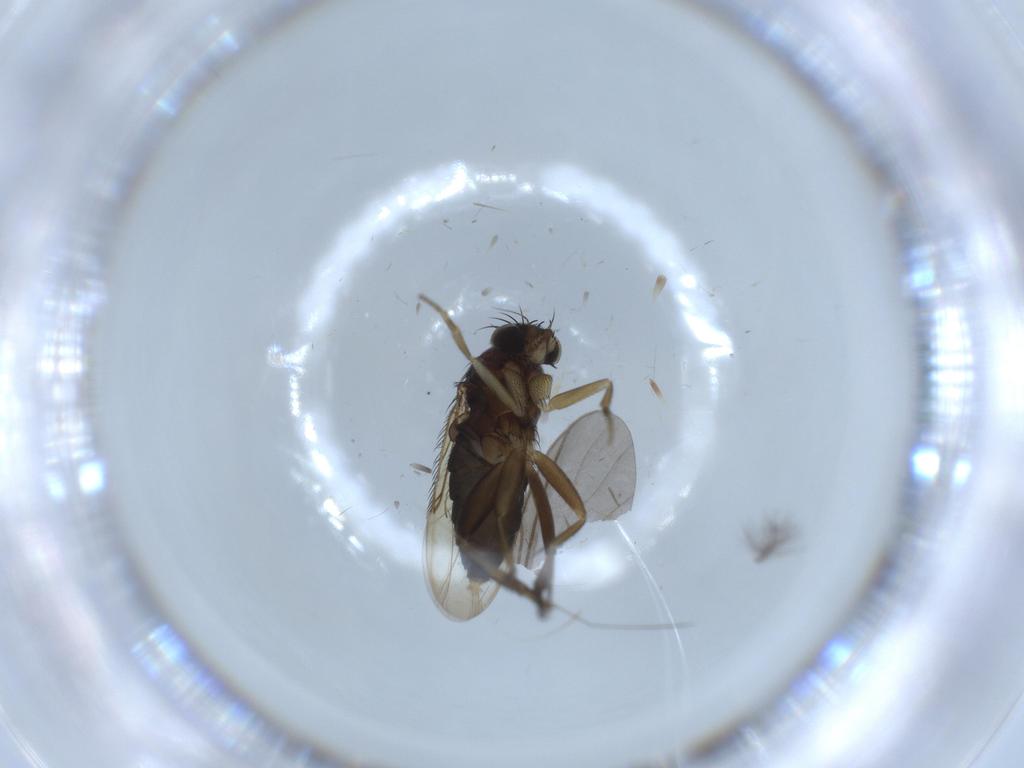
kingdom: Animalia
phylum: Arthropoda
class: Insecta
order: Diptera
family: Phoridae
